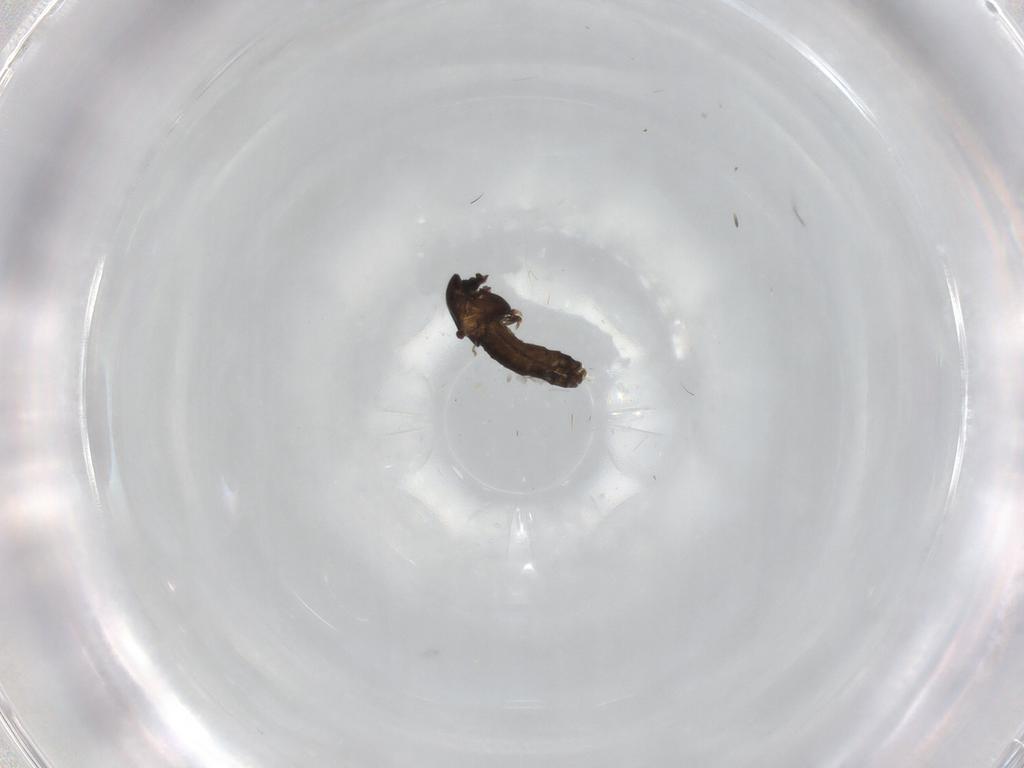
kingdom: Animalia
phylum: Arthropoda
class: Insecta
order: Diptera
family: Chironomidae
